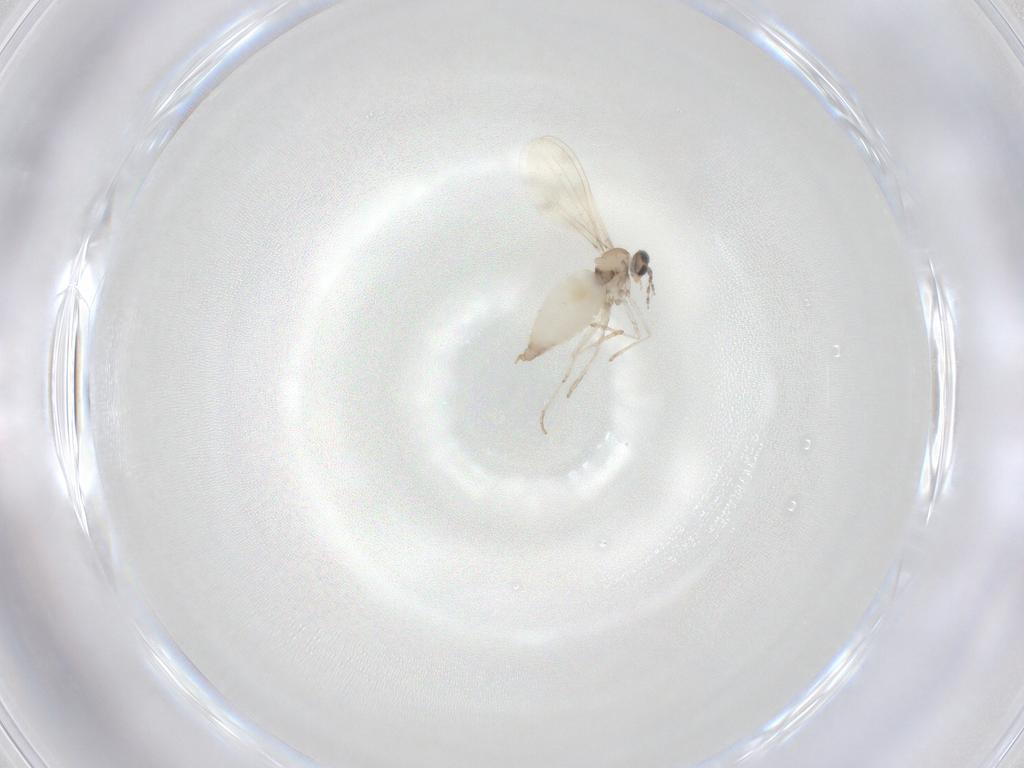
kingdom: Animalia
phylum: Arthropoda
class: Insecta
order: Diptera
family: Cecidomyiidae
